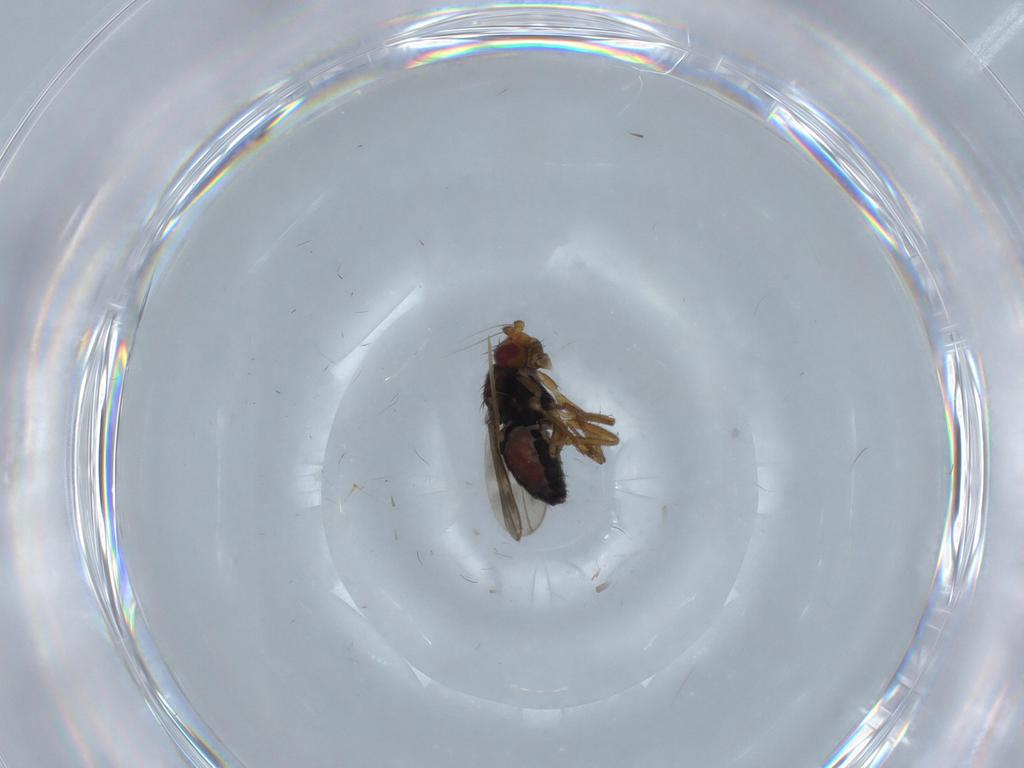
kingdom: Animalia
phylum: Arthropoda
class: Insecta
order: Diptera
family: Sphaeroceridae
